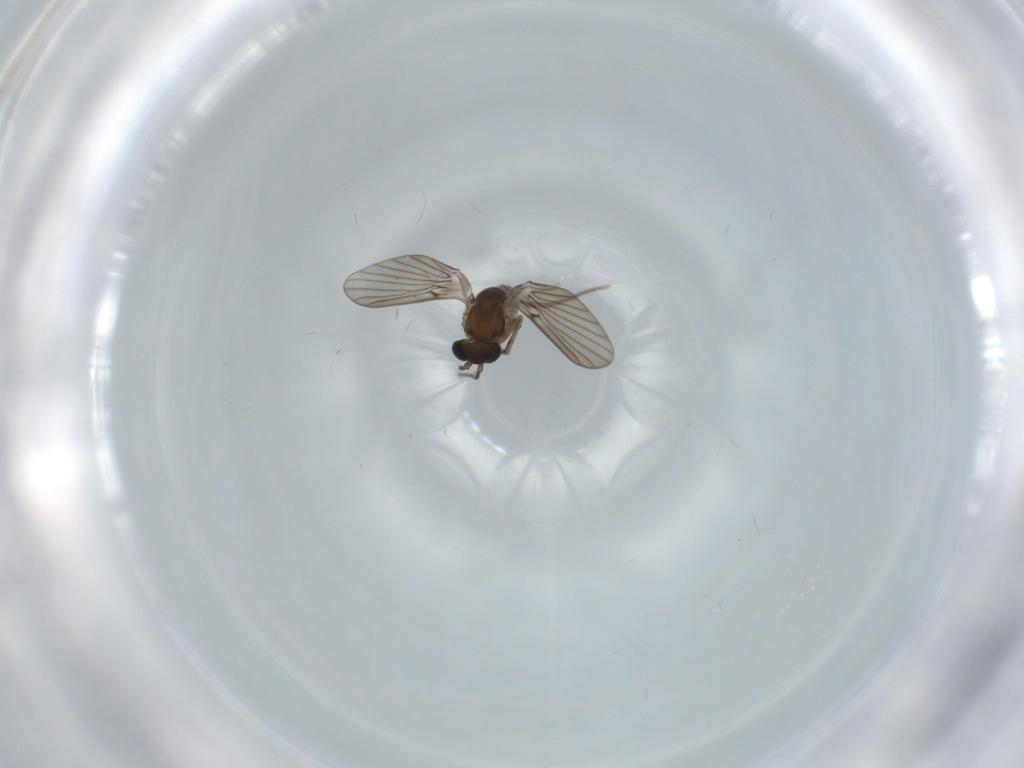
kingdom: Animalia
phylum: Arthropoda
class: Insecta
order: Diptera
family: Psychodidae
